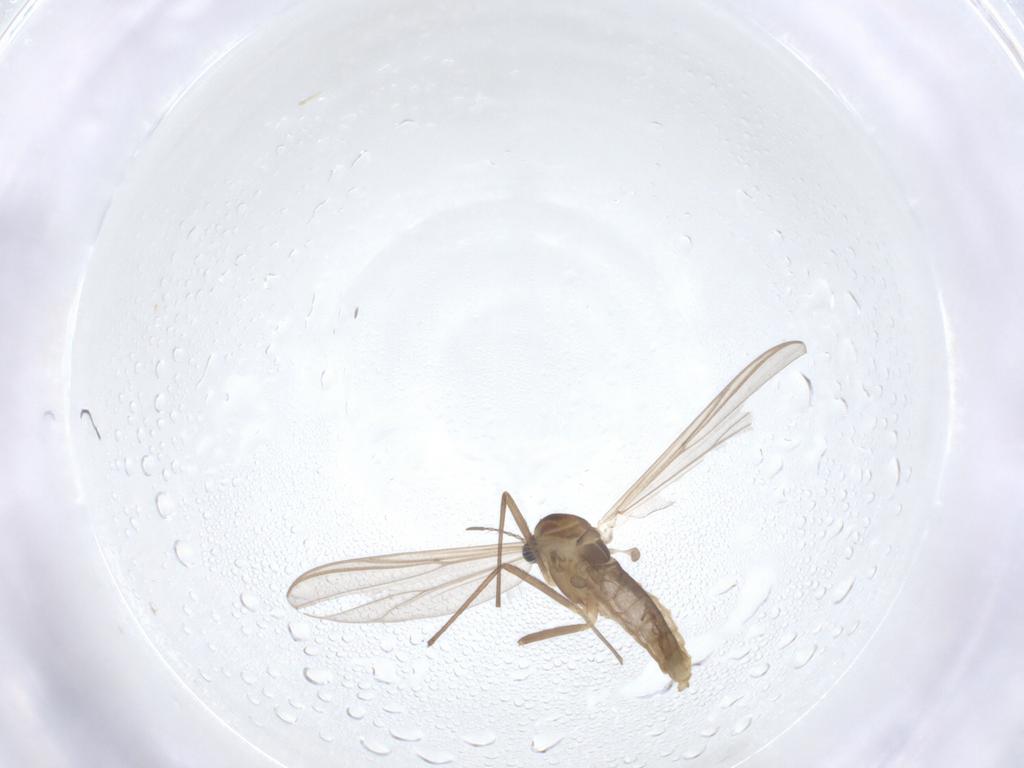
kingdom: Animalia
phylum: Arthropoda
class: Insecta
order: Diptera
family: Chironomidae
